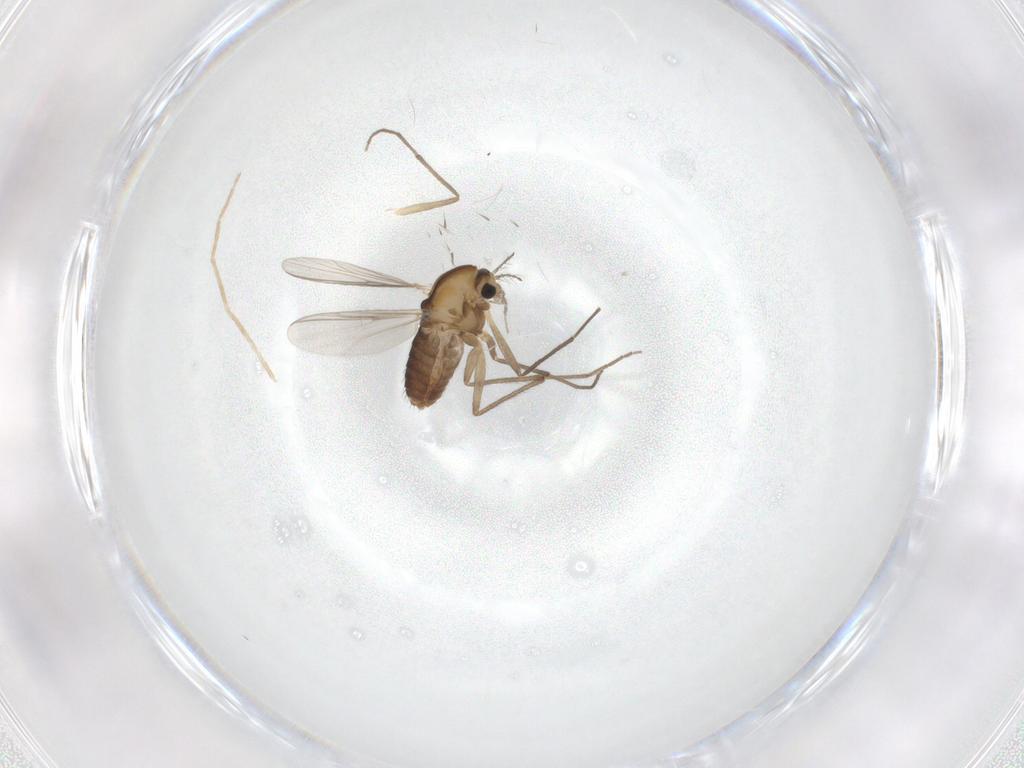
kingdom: Animalia
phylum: Arthropoda
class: Insecta
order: Diptera
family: Chironomidae
